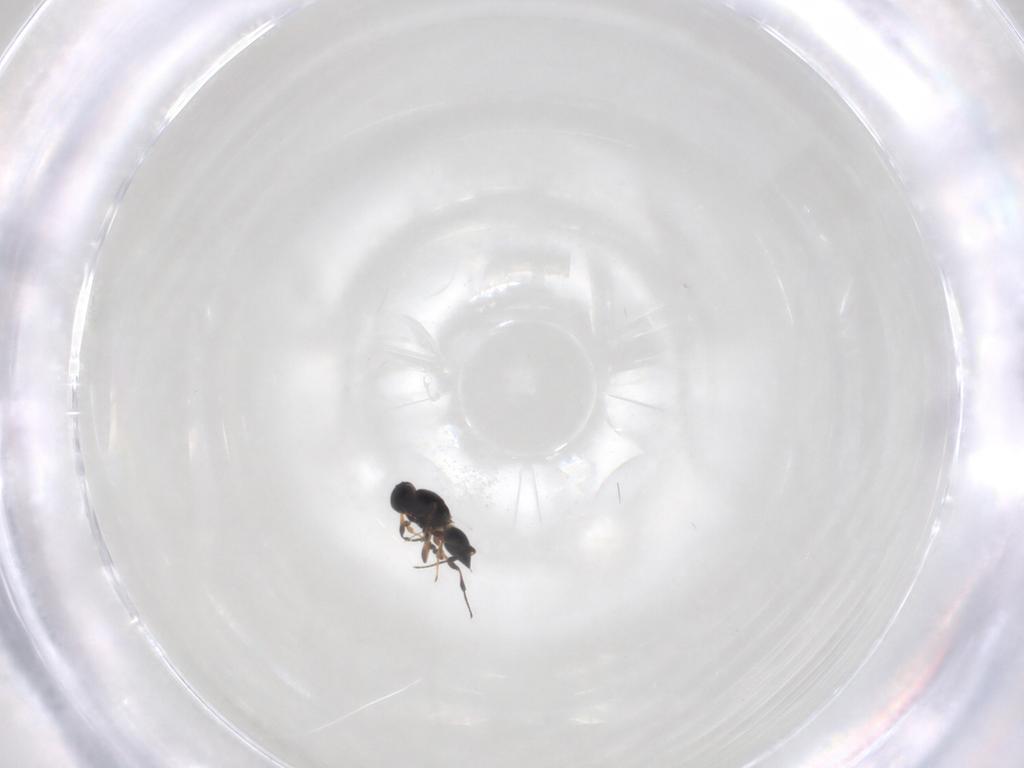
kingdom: Animalia
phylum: Arthropoda
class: Insecta
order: Hymenoptera
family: Platygastridae
